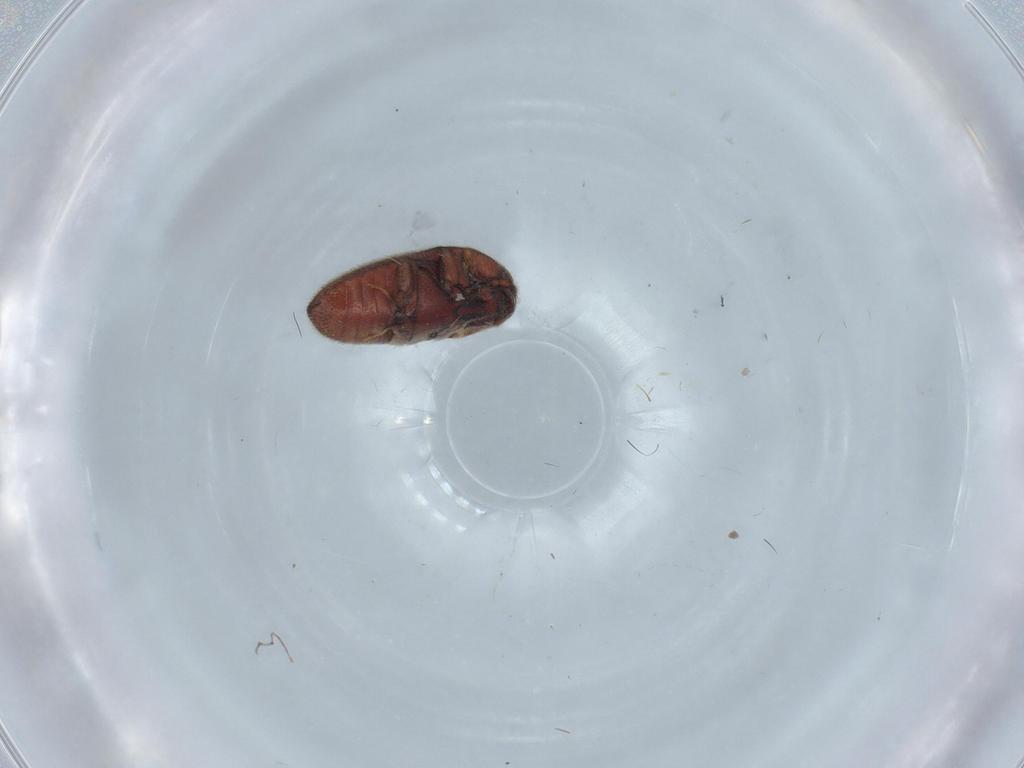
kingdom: Animalia
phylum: Arthropoda
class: Insecta
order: Coleoptera
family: Throscidae
